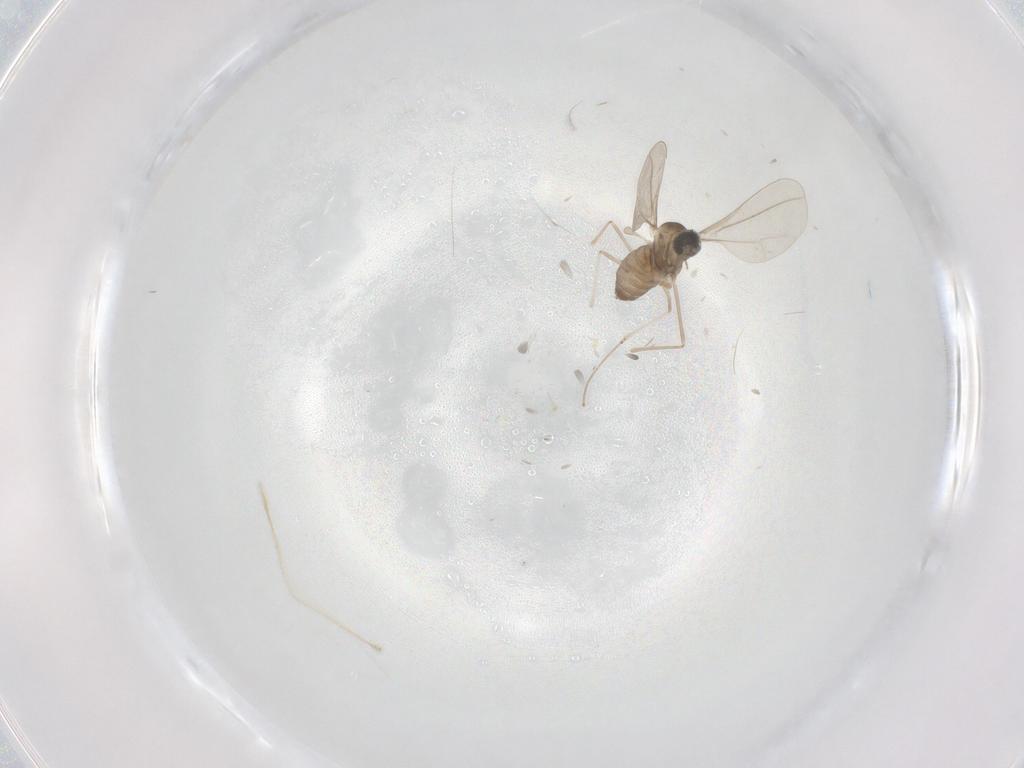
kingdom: Animalia
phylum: Arthropoda
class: Insecta
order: Diptera
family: Cecidomyiidae
